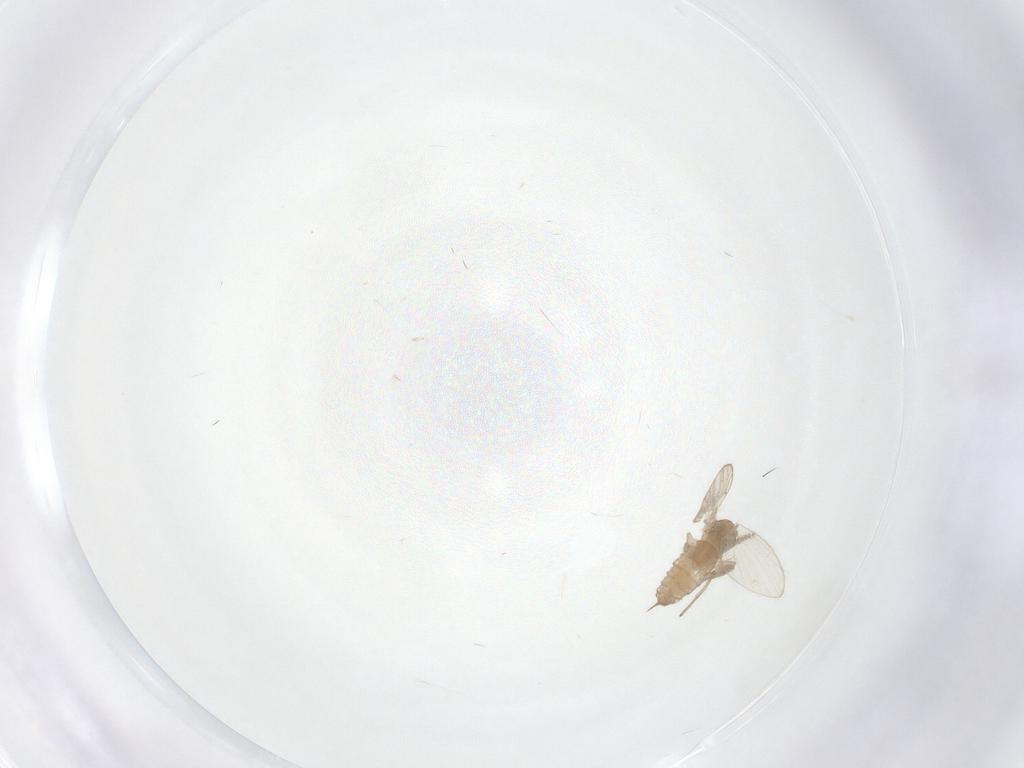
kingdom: Animalia
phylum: Arthropoda
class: Insecta
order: Diptera
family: Psychodidae
